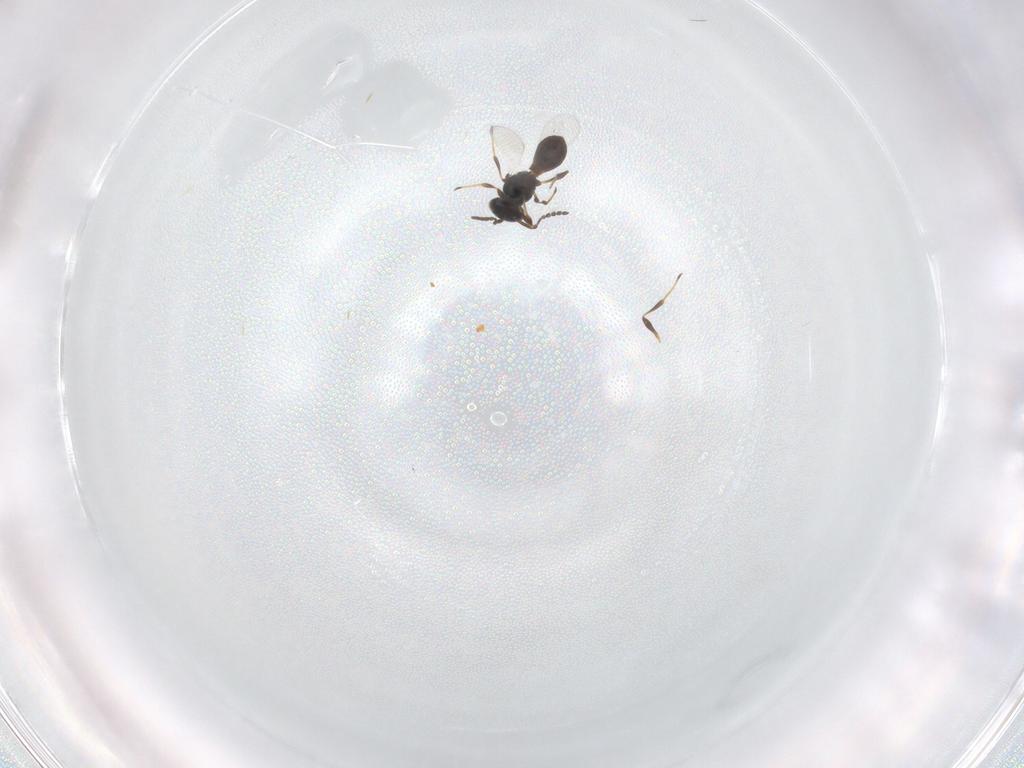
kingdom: Animalia
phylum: Arthropoda
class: Insecta
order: Hymenoptera
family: Platygastridae
